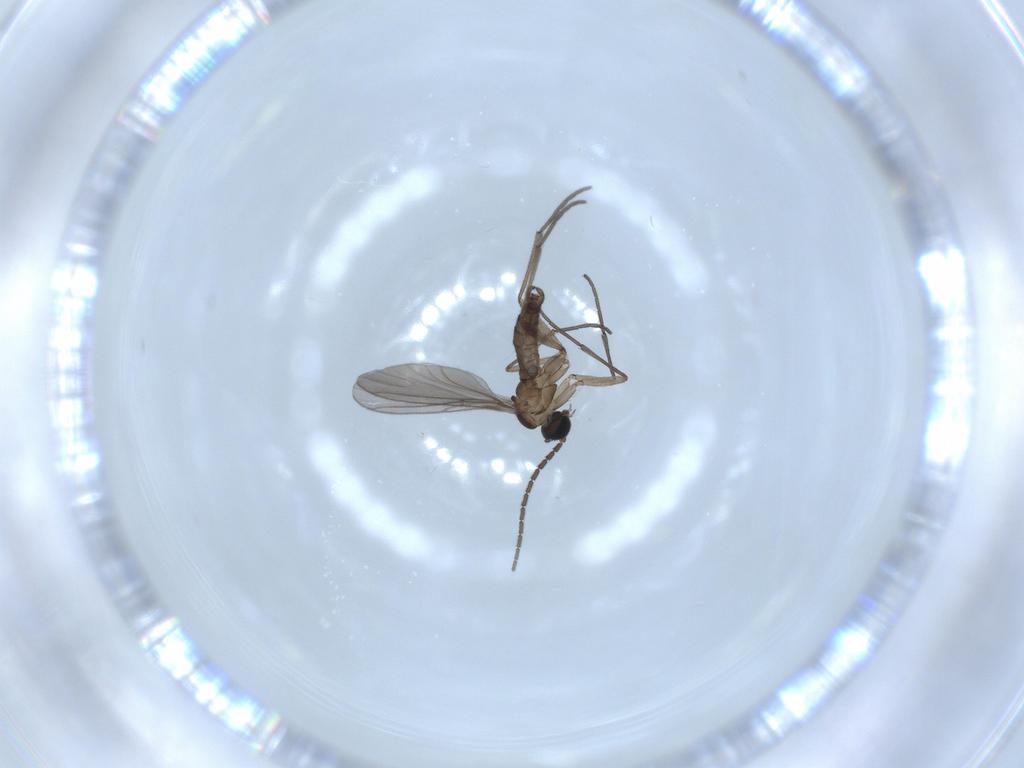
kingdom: Animalia
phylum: Arthropoda
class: Insecta
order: Diptera
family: Sciaridae
